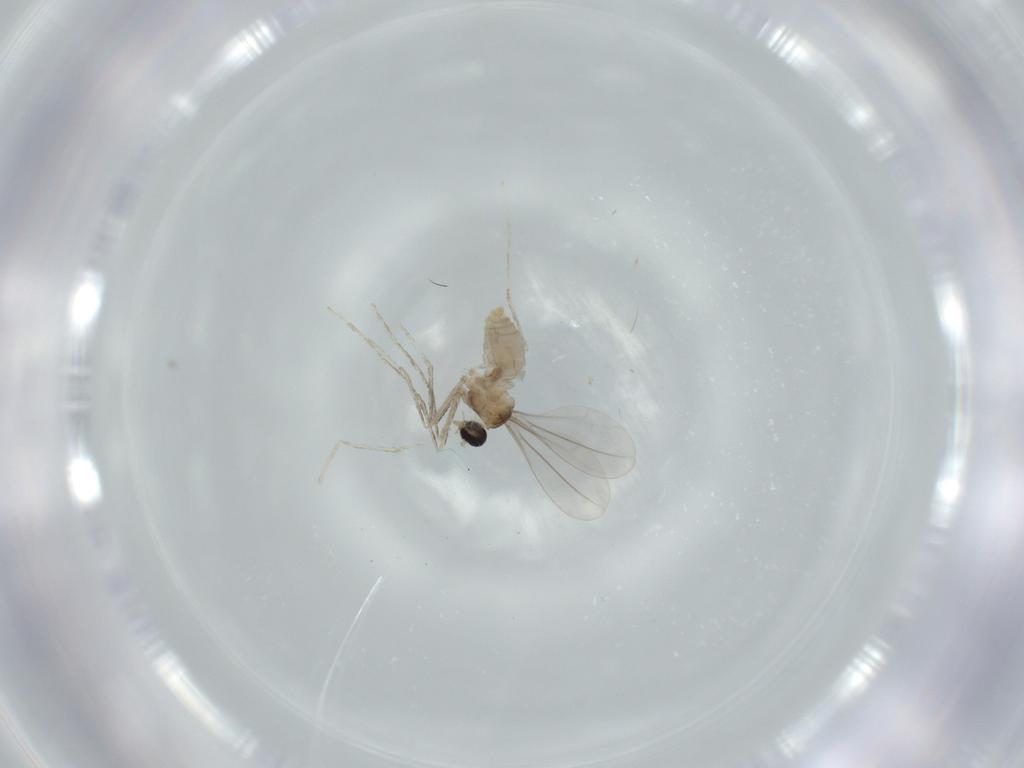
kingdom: Animalia
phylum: Arthropoda
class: Insecta
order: Diptera
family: Cecidomyiidae
